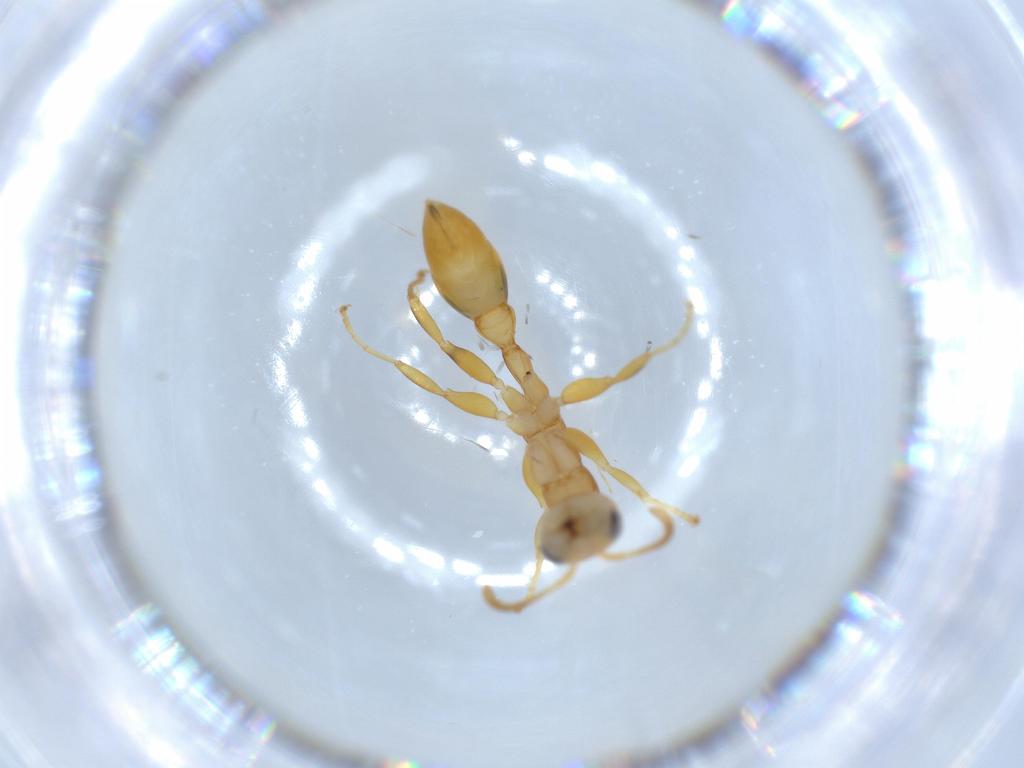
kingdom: Animalia
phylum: Arthropoda
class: Insecta
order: Hymenoptera
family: Formicidae
